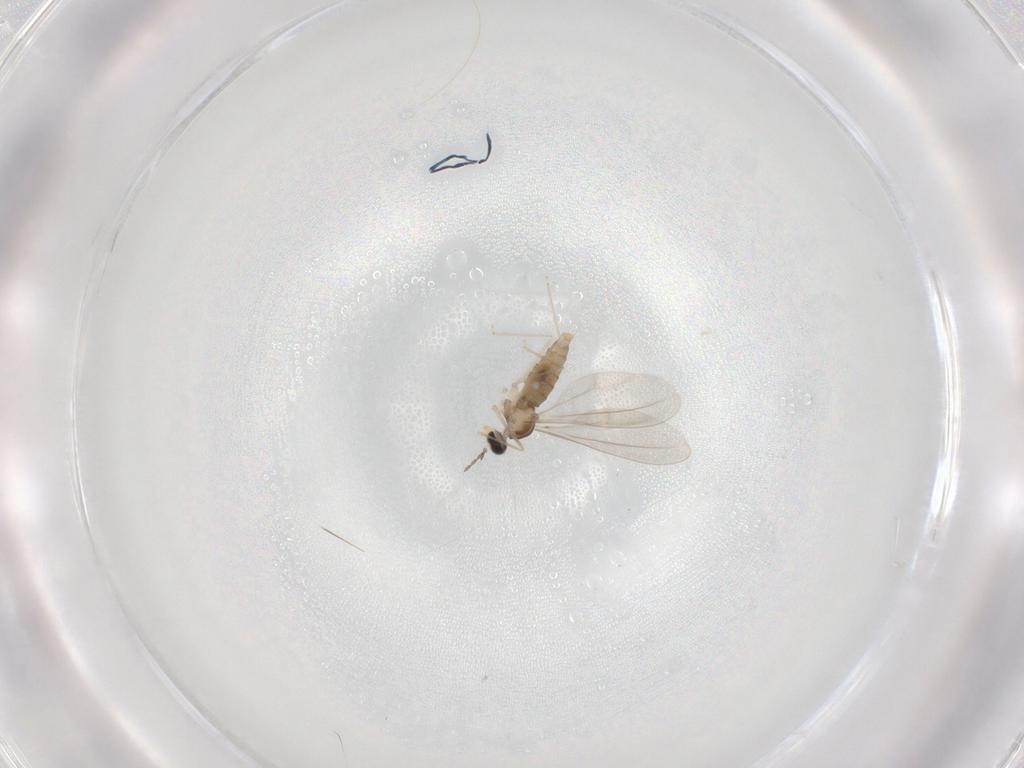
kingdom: Animalia
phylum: Arthropoda
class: Insecta
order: Diptera
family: Cecidomyiidae
